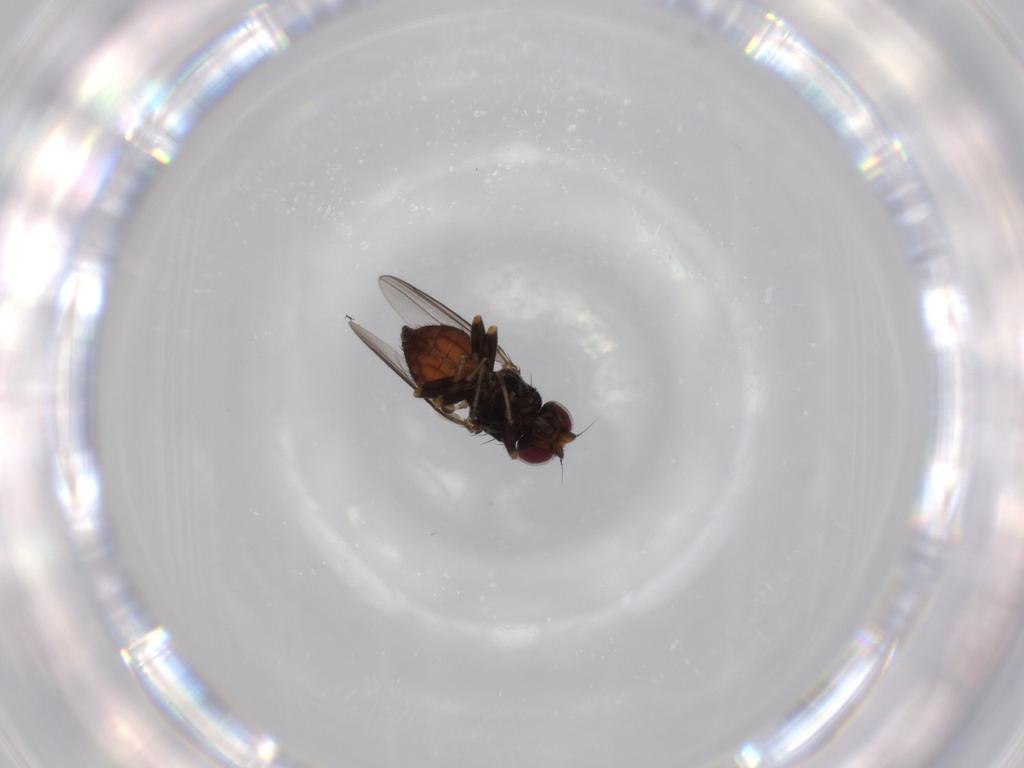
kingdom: Animalia
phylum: Arthropoda
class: Insecta
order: Diptera
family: Chloropidae
